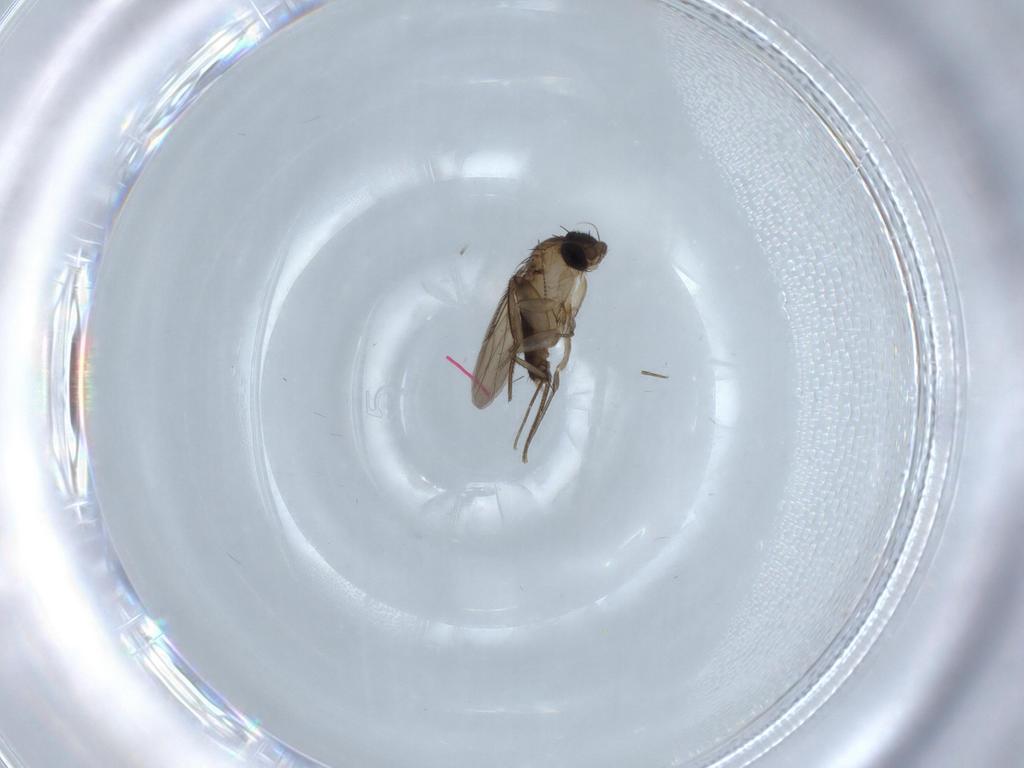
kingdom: Animalia
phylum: Arthropoda
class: Insecta
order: Diptera
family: Phoridae
